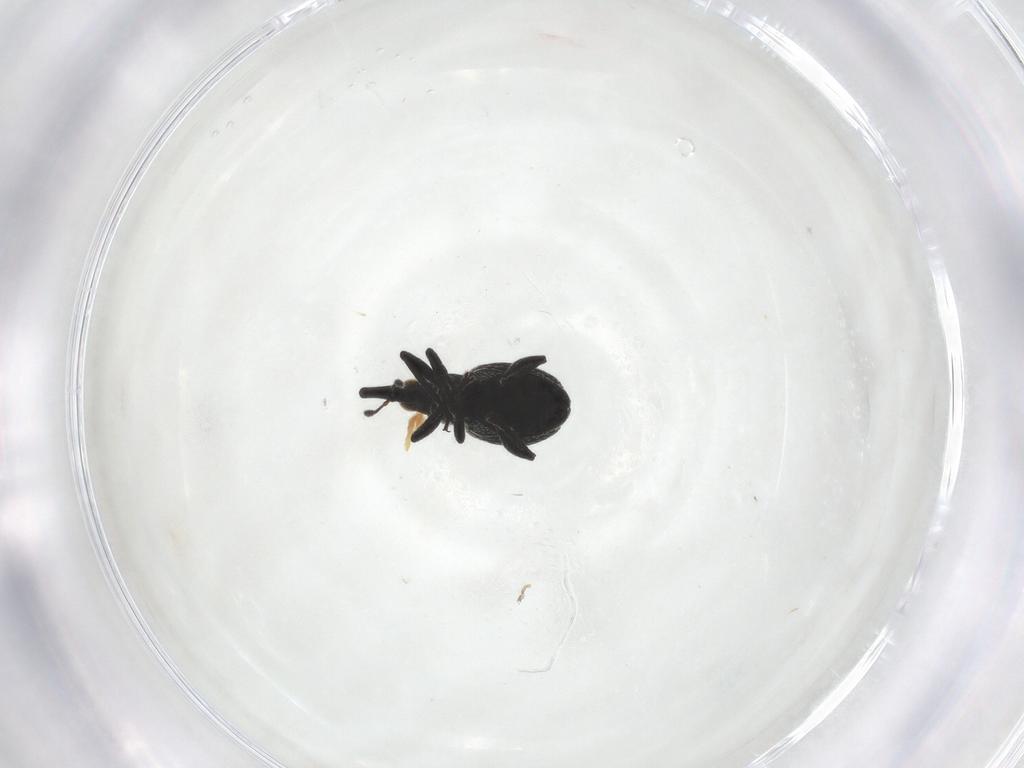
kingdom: Animalia
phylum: Arthropoda
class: Insecta
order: Coleoptera
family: Brentidae
